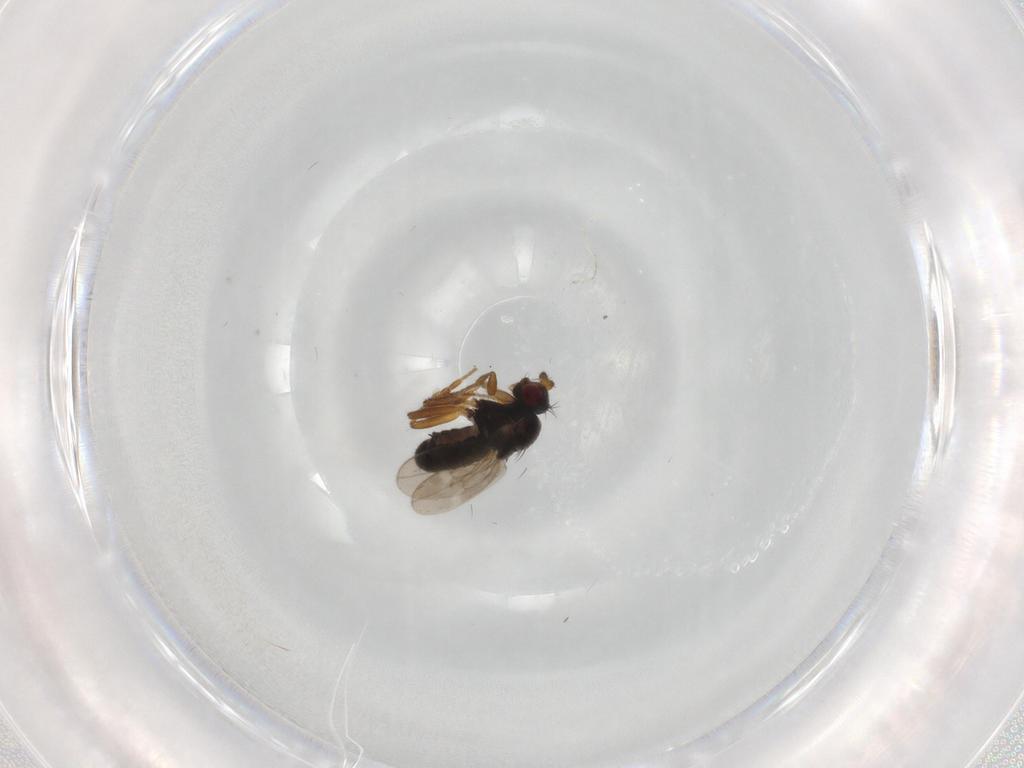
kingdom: Animalia
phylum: Arthropoda
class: Insecta
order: Diptera
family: Sphaeroceridae
